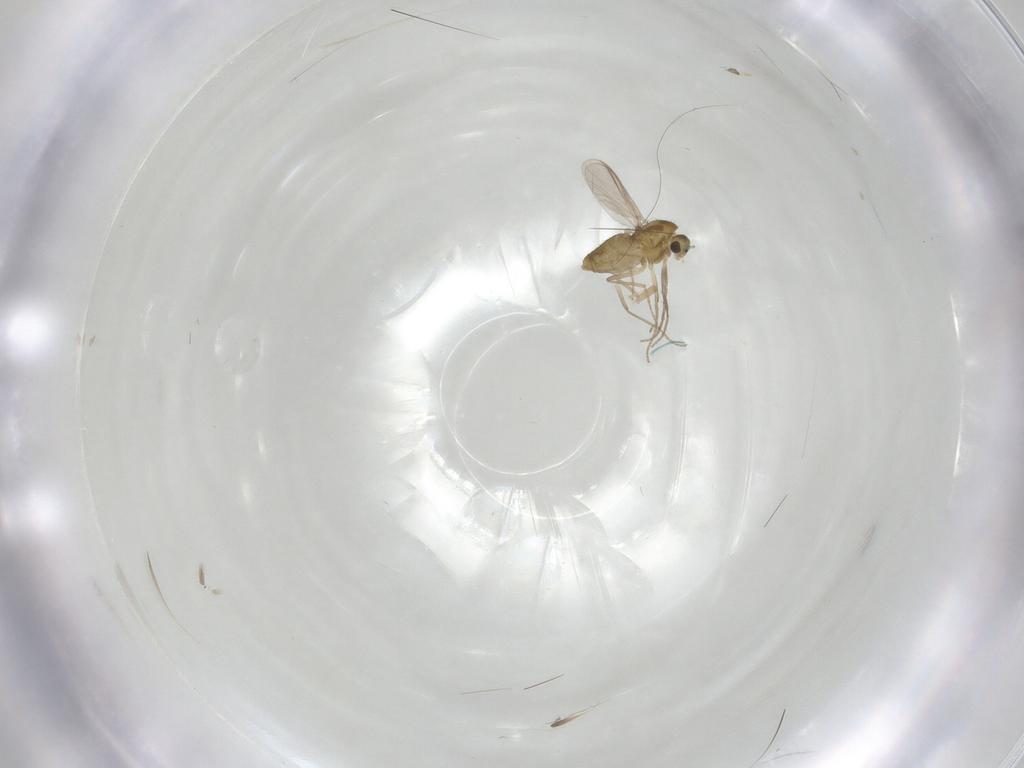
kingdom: Animalia
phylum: Arthropoda
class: Insecta
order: Diptera
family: Chironomidae
